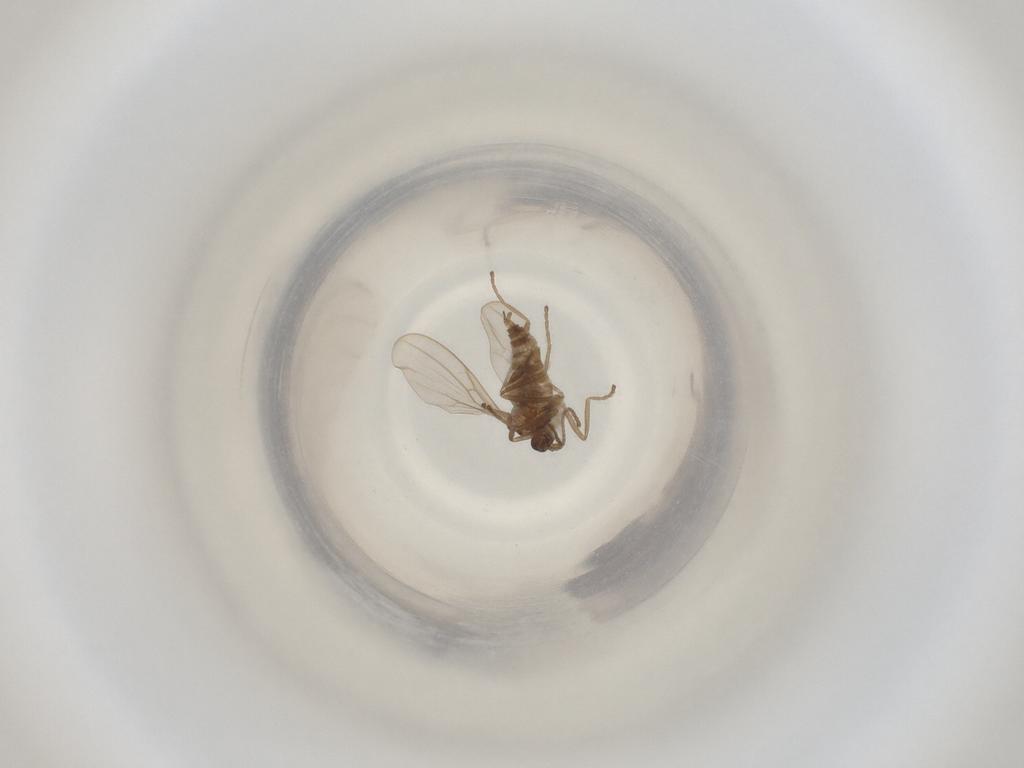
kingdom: Animalia
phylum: Arthropoda
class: Insecta
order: Diptera
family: Cecidomyiidae
